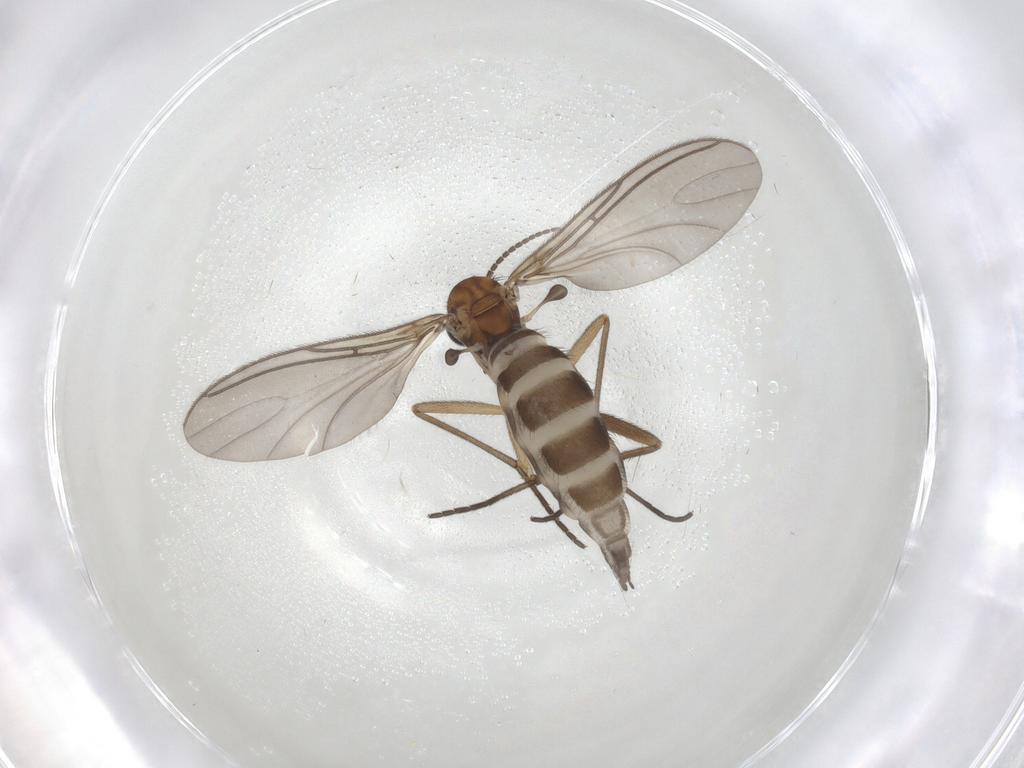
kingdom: Animalia
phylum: Arthropoda
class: Insecta
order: Diptera
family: Sciaridae
